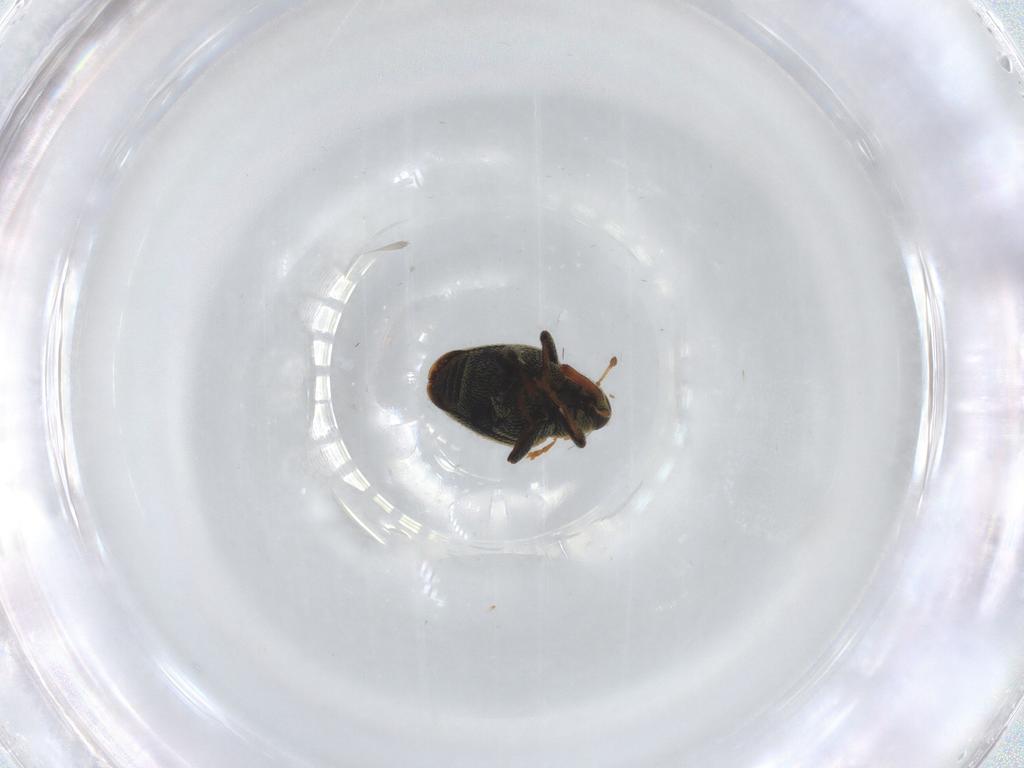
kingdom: Animalia
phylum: Arthropoda
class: Insecta
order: Coleoptera
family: Curculionidae
